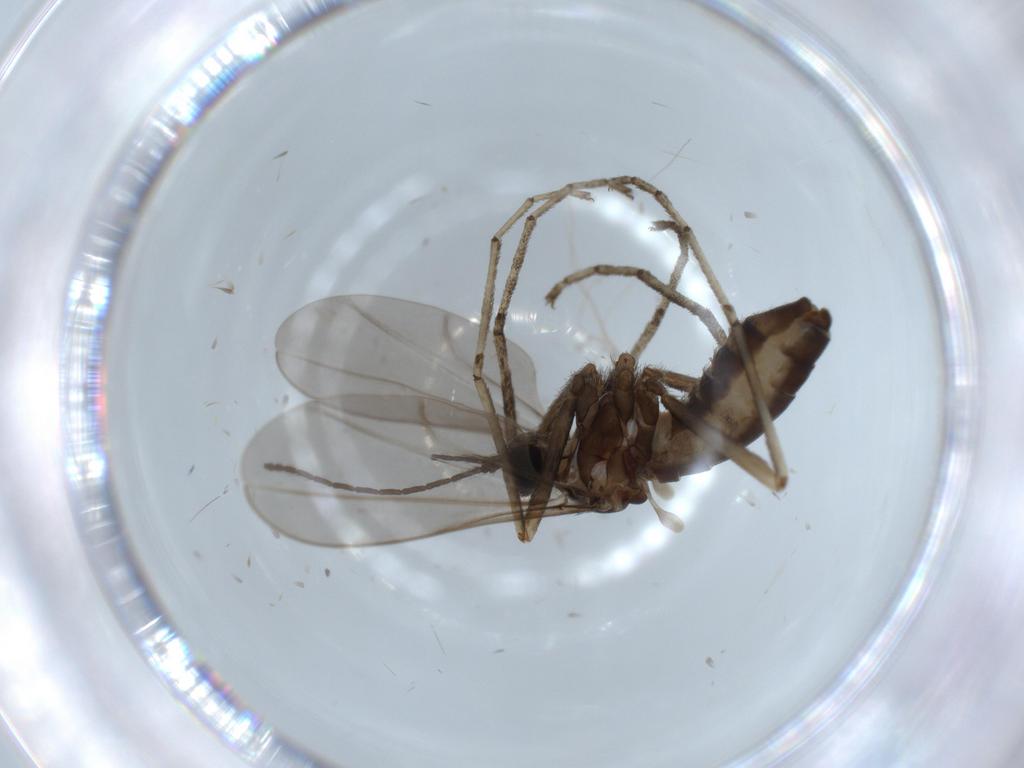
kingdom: Animalia
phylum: Arthropoda
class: Insecta
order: Diptera
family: Cecidomyiidae
